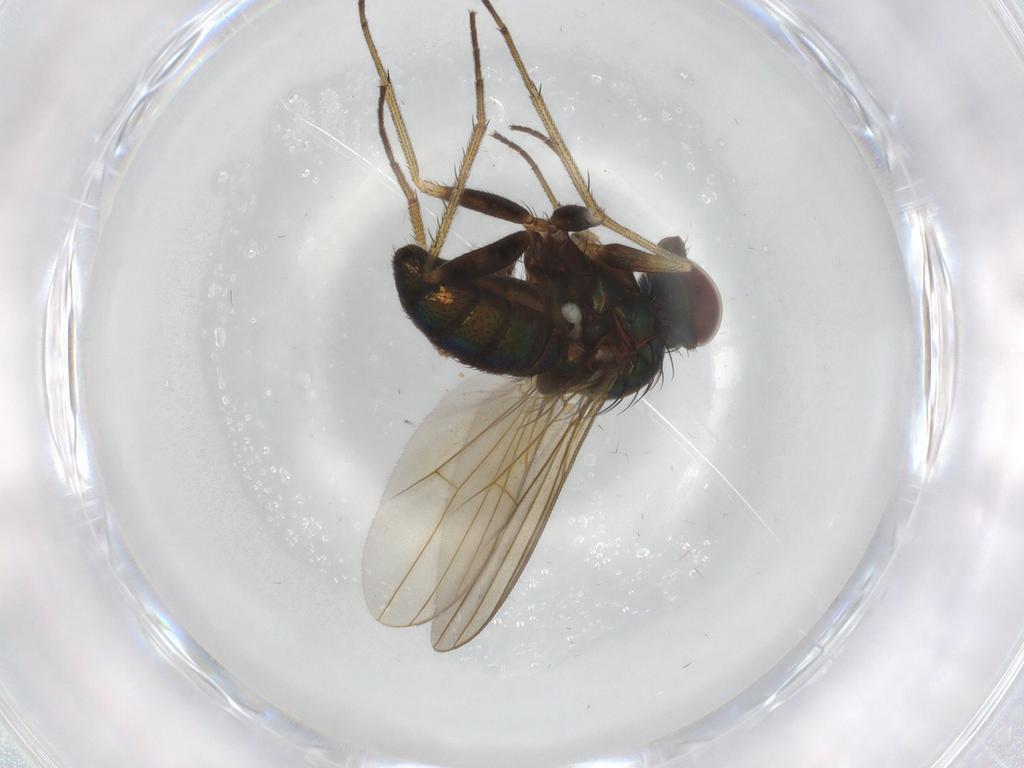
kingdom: Animalia
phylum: Arthropoda
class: Insecta
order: Diptera
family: Dolichopodidae
